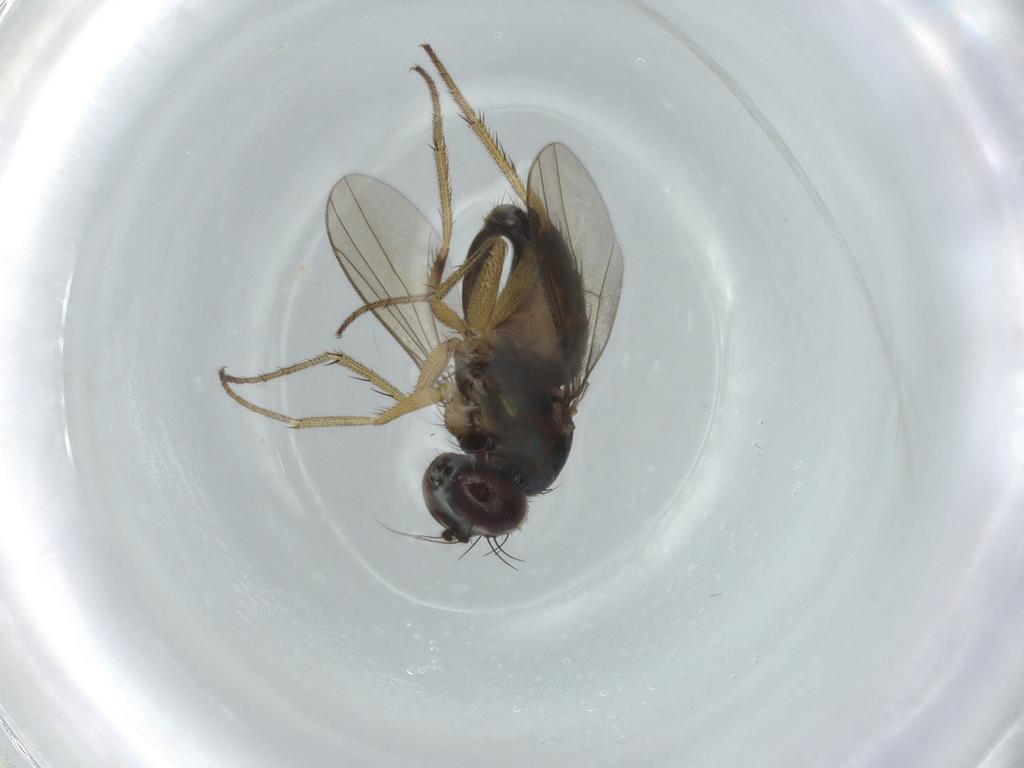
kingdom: Animalia
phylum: Arthropoda
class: Insecta
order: Diptera
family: Dolichopodidae
